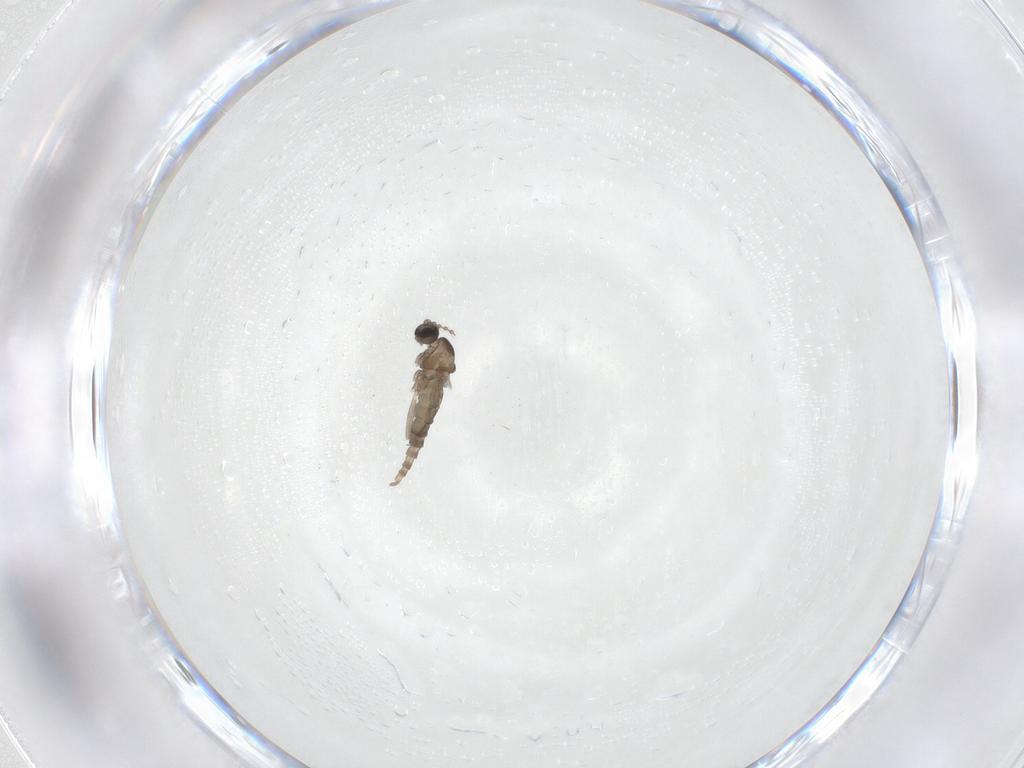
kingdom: Animalia
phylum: Arthropoda
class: Insecta
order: Diptera
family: Cecidomyiidae
